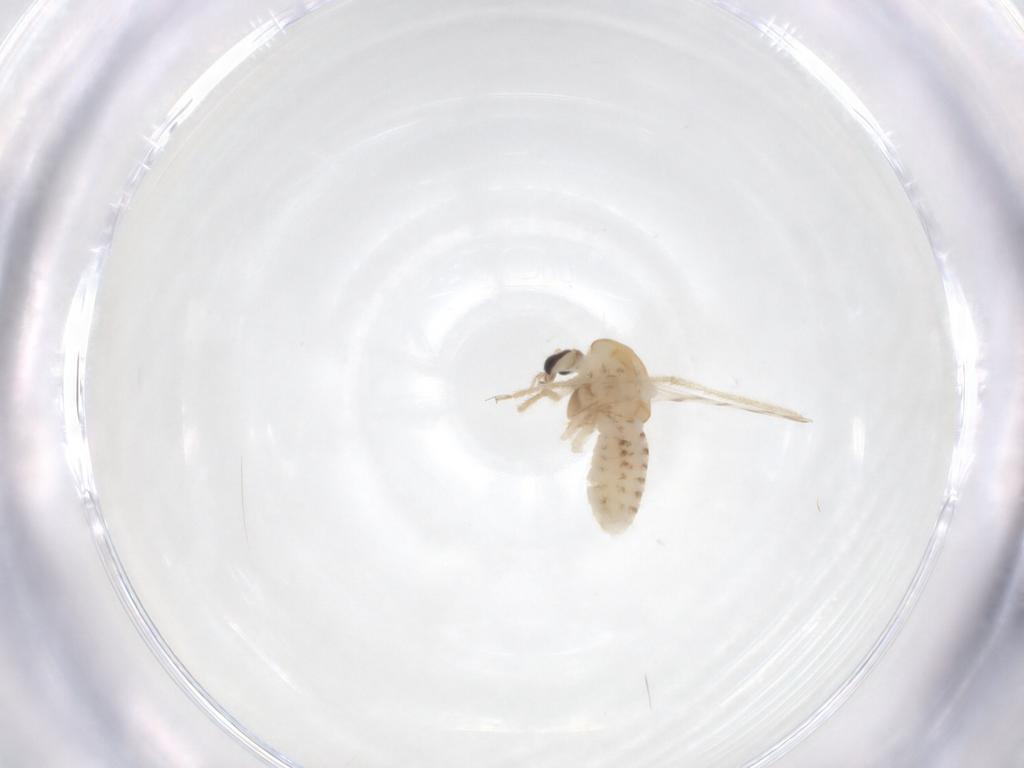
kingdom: Animalia
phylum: Arthropoda
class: Insecta
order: Diptera
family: Chironomidae
